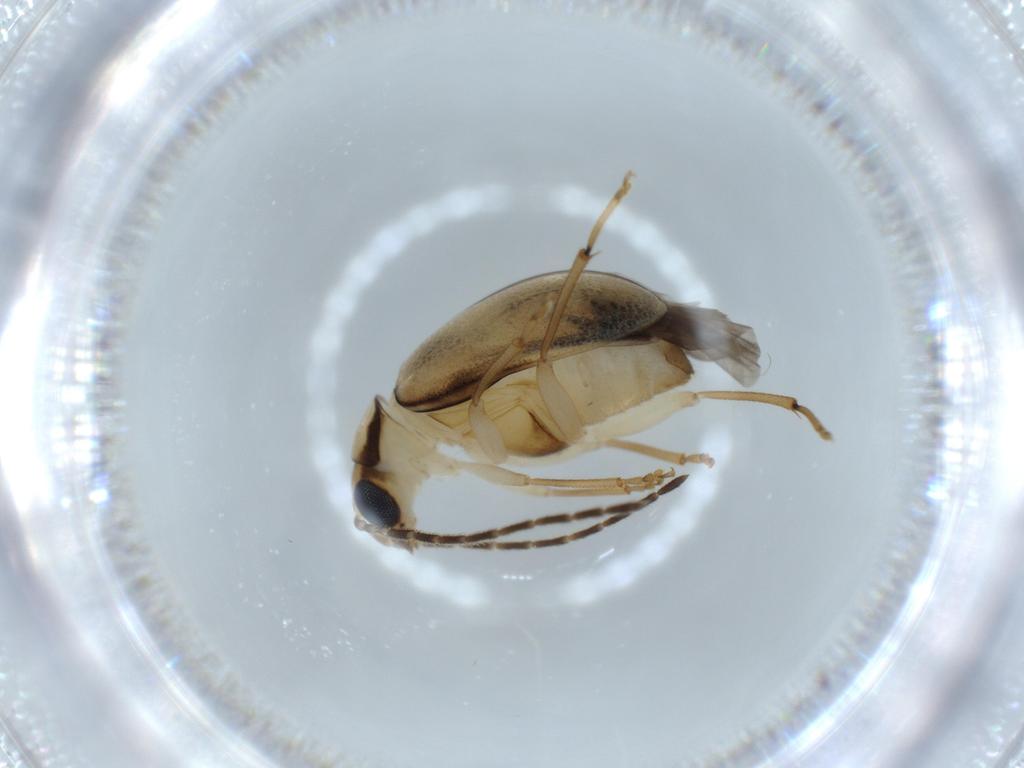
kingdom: Animalia
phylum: Arthropoda
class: Insecta
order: Coleoptera
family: Chrysomelidae
